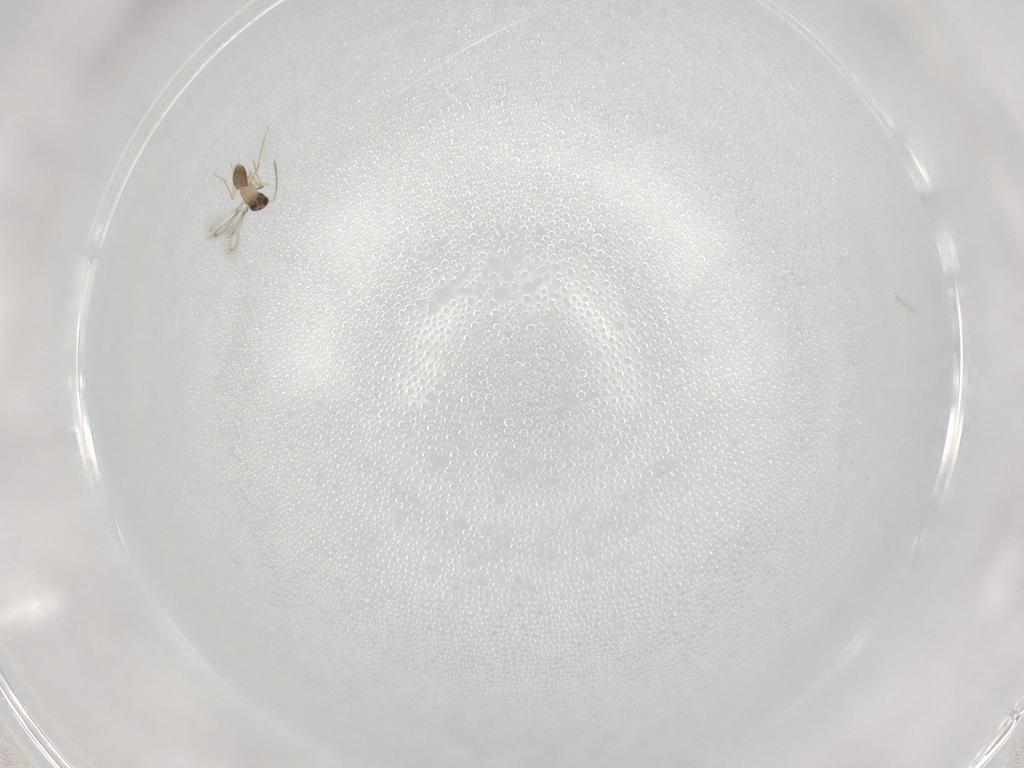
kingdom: Animalia
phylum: Arthropoda
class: Insecta
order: Hymenoptera
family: Mymaridae
